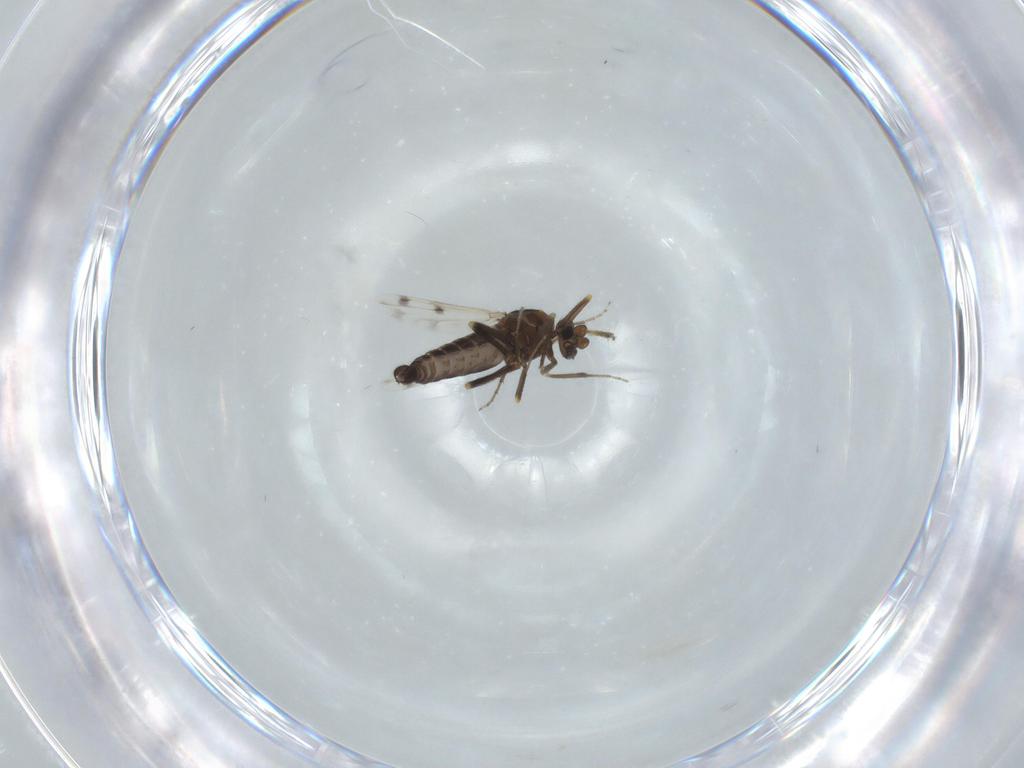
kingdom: Animalia
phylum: Arthropoda
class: Insecta
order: Diptera
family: Ceratopogonidae
